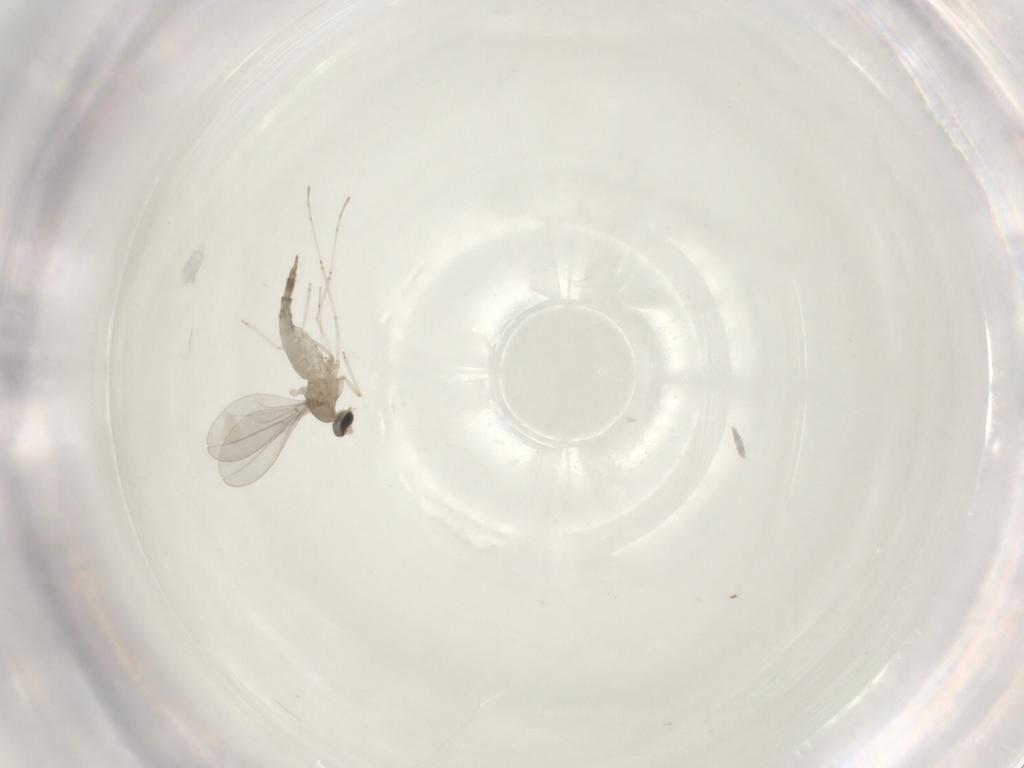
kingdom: Animalia
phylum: Arthropoda
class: Insecta
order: Diptera
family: Cecidomyiidae
